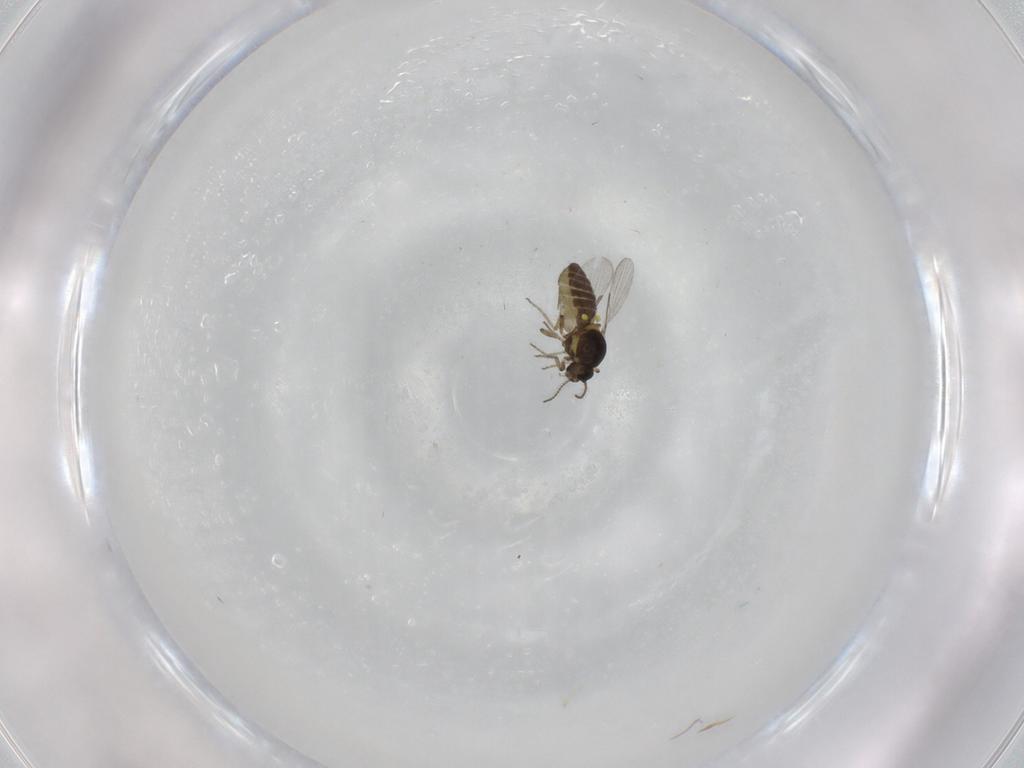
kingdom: Animalia
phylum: Arthropoda
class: Insecta
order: Diptera
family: Ceratopogonidae
